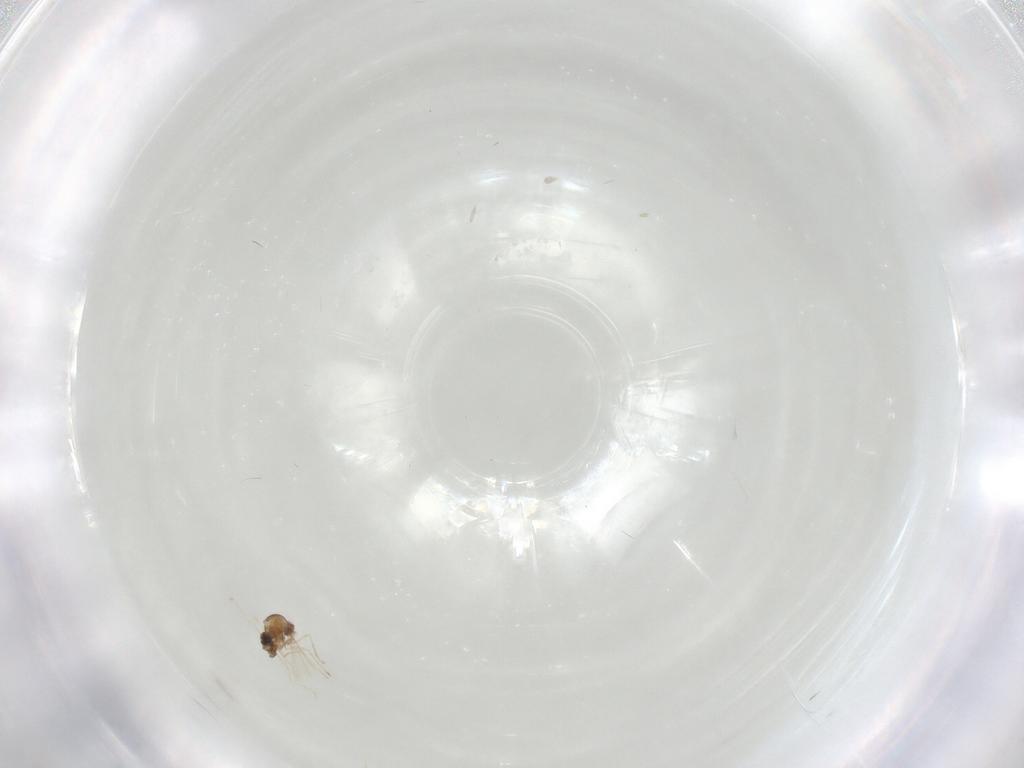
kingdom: Animalia
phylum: Arthropoda
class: Insecta
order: Diptera
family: Cecidomyiidae
